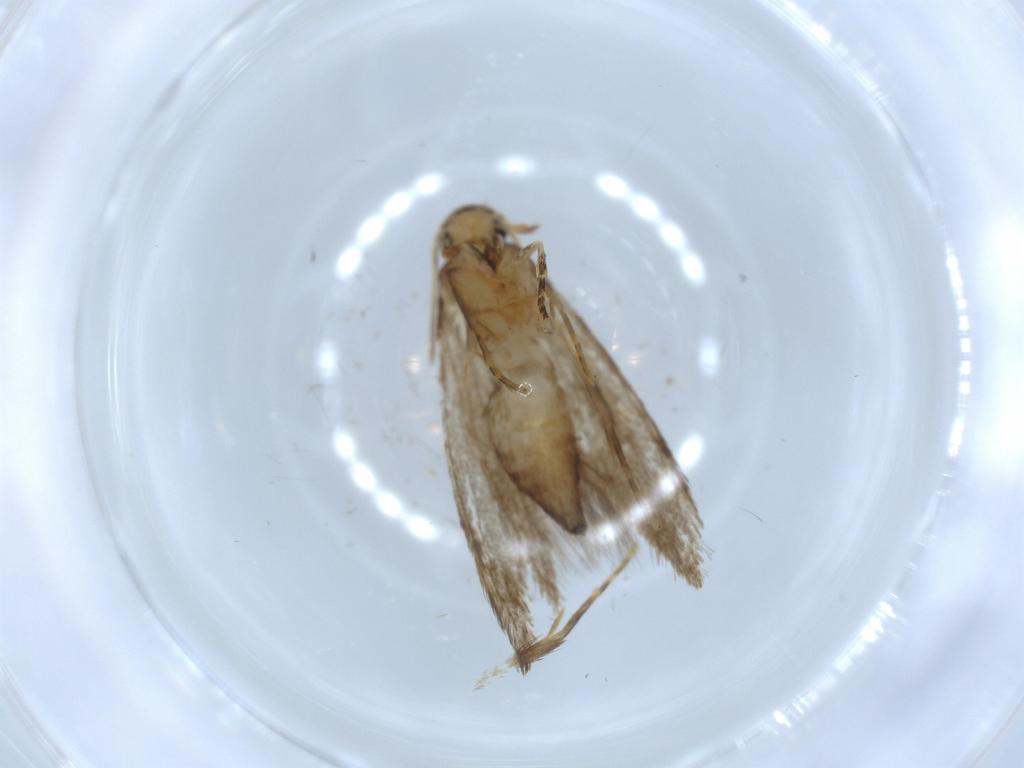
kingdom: Animalia
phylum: Arthropoda
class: Insecta
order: Lepidoptera
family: Tineidae
